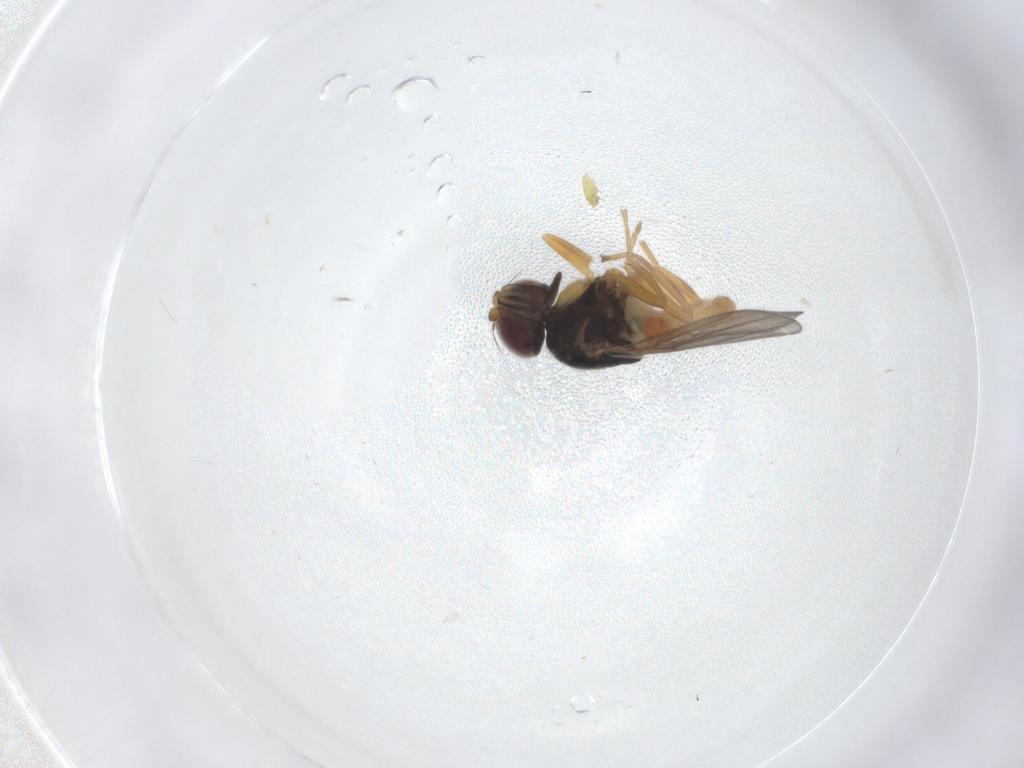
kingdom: Animalia
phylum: Arthropoda
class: Insecta
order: Diptera
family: Chloropidae
